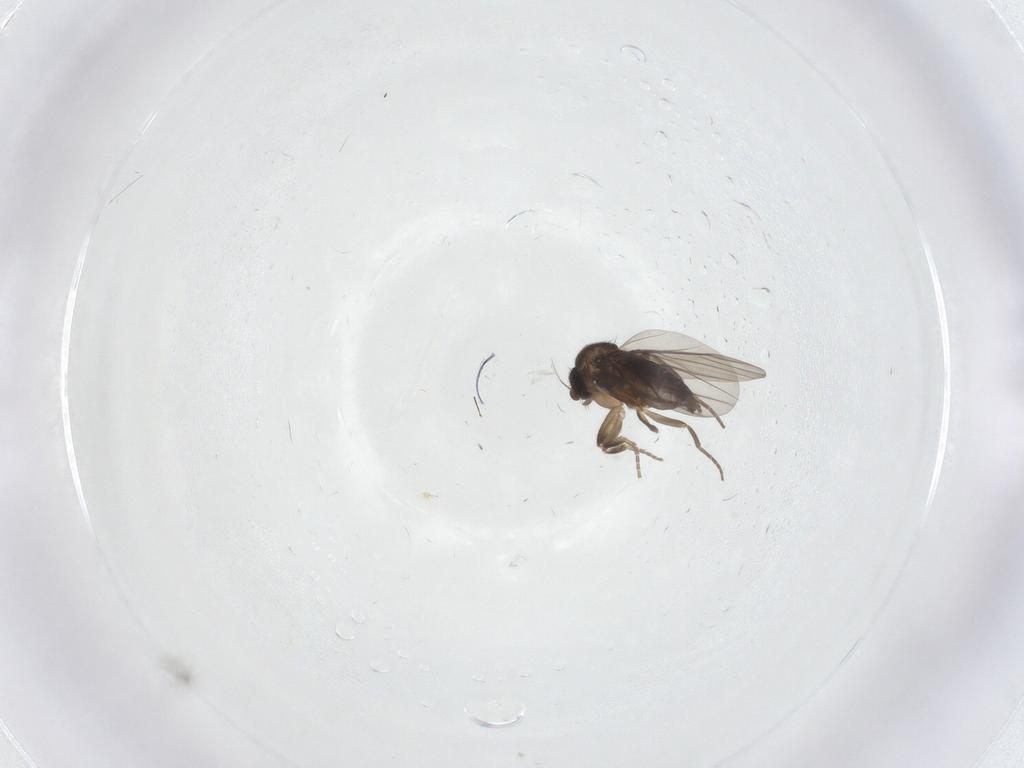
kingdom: Animalia
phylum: Arthropoda
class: Insecta
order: Diptera
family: Phoridae
